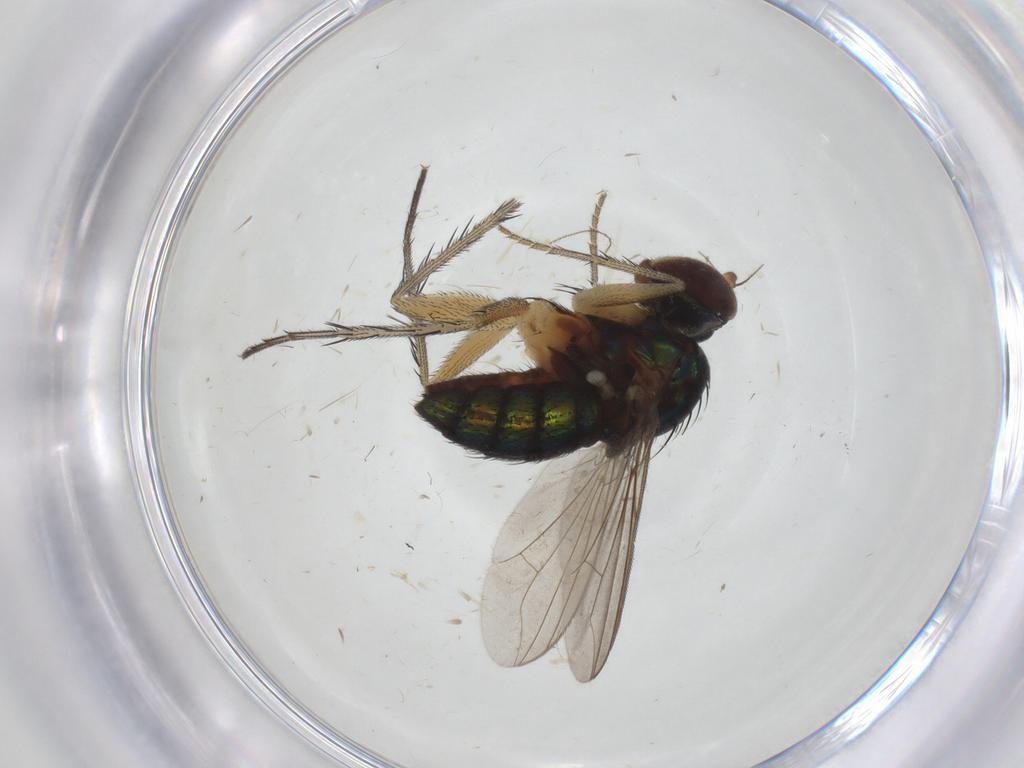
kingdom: Animalia
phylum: Arthropoda
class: Insecta
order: Diptera
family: Dolichopodidae
